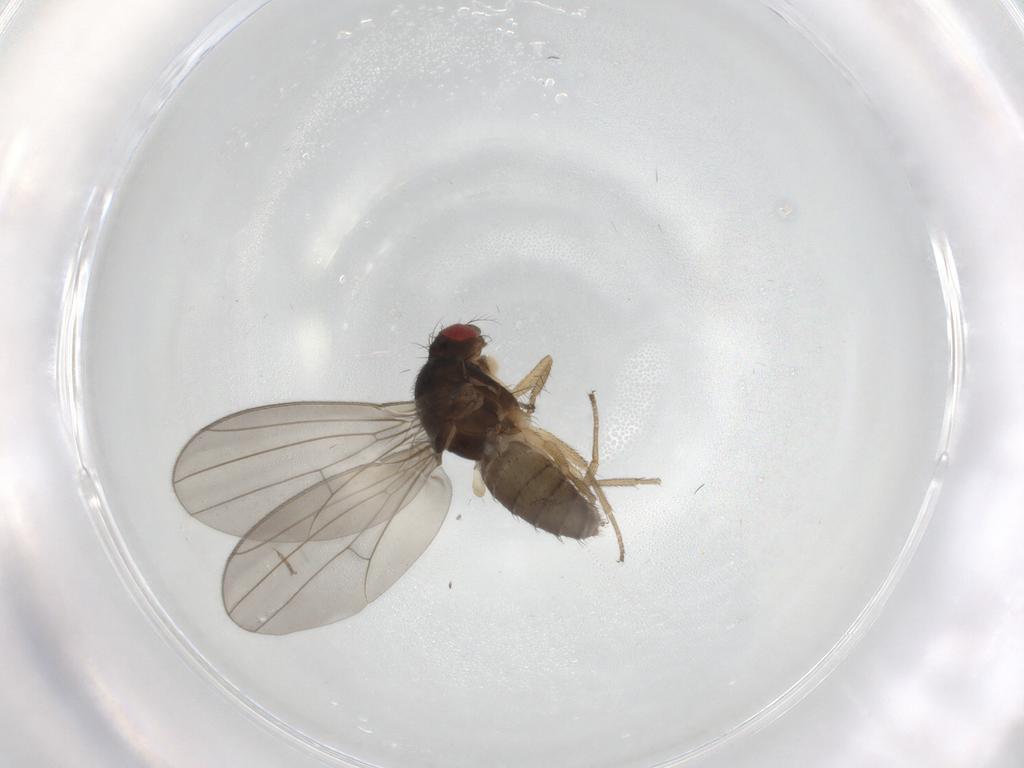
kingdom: Animalia
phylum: Arthropoda
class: Insecta
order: Diptera
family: Drosophilidae
